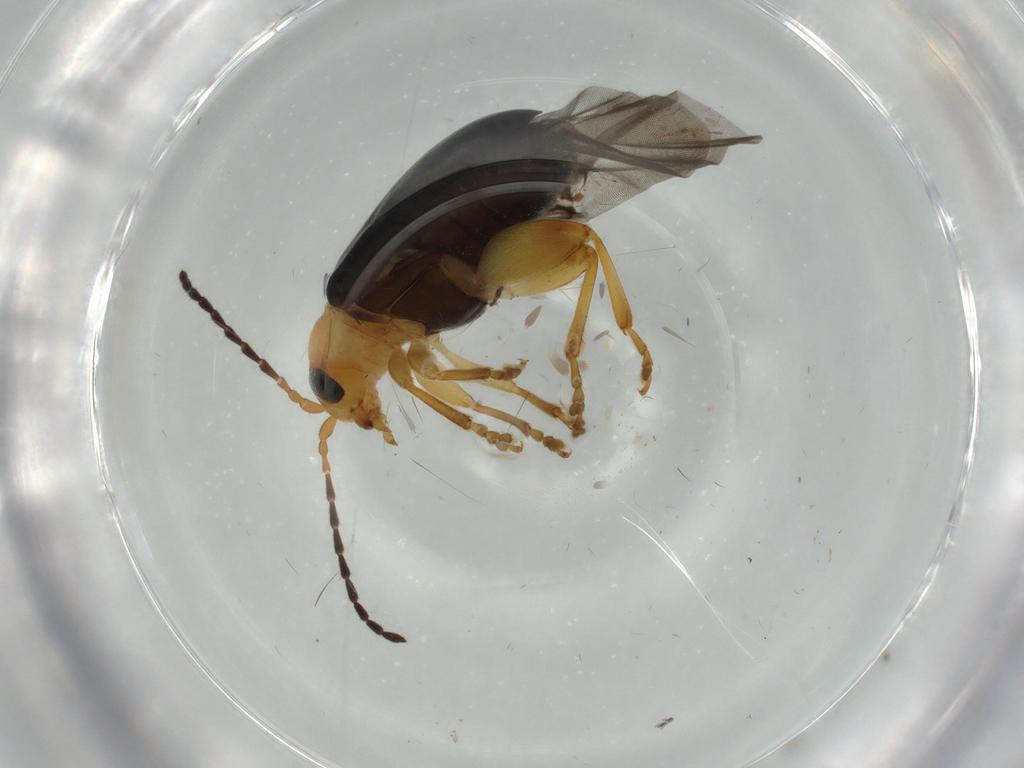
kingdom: Animalia
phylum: Arthropoda
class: Insecta
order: Coleoptera
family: Chrysomelidae
